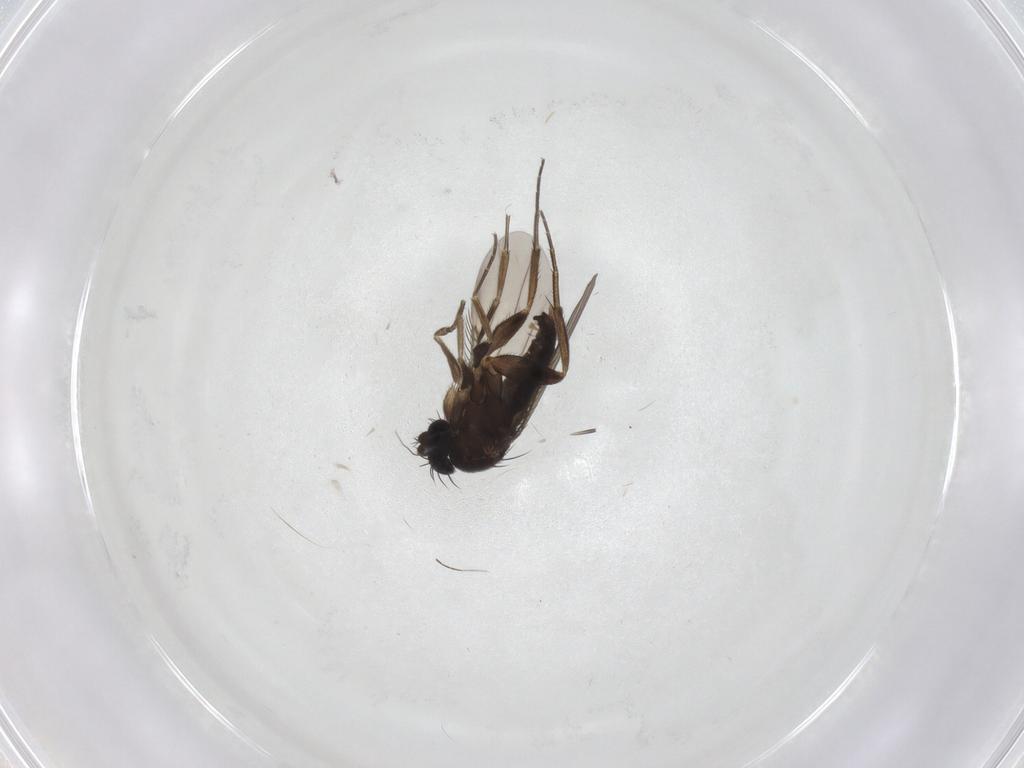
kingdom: Animalia
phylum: Arthropoda
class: Insecta
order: Diptera
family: Phoridae
